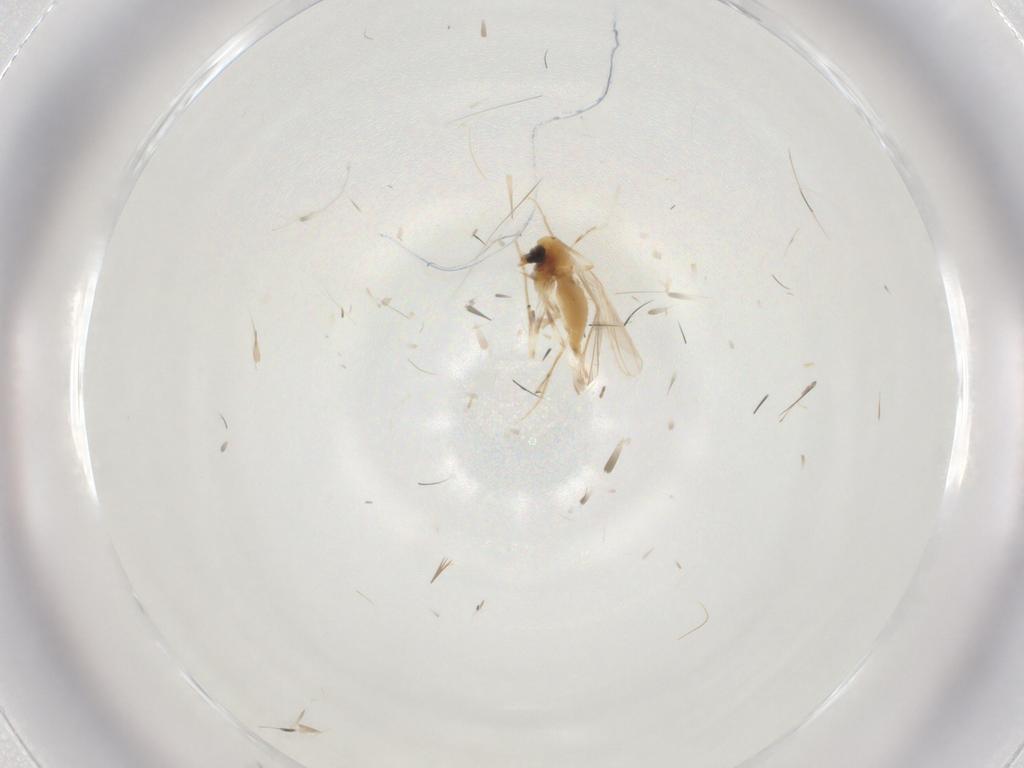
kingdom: Animalia
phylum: Arthropoda
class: Insecta
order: Diptera
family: Chironomidae
